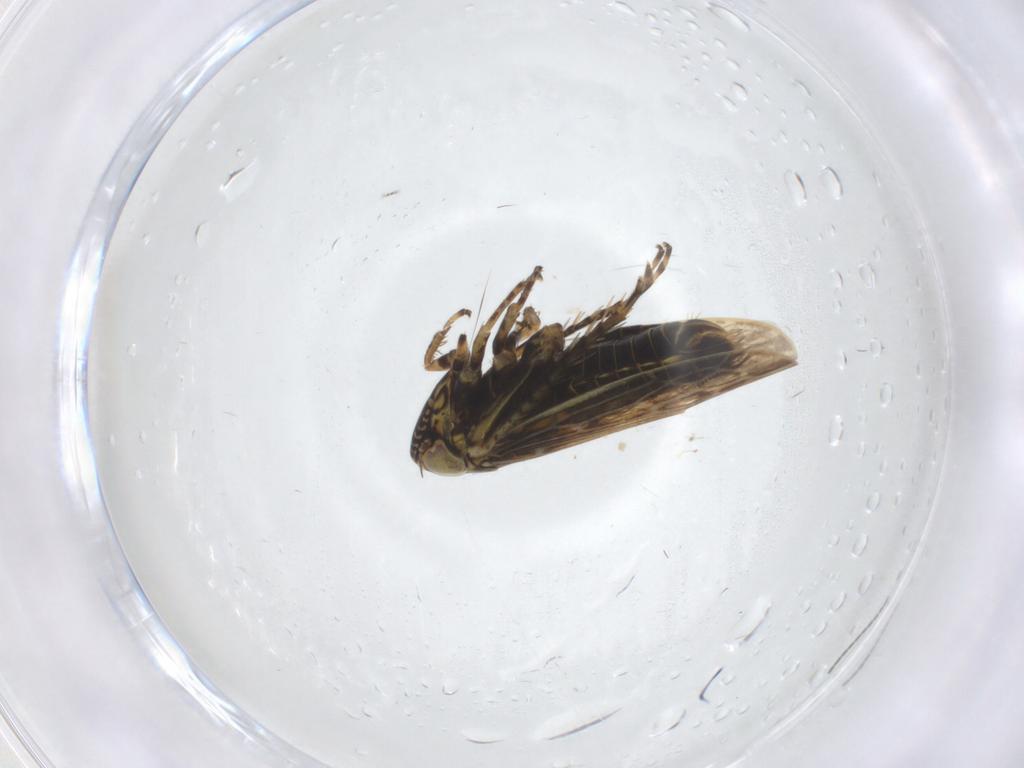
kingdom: Animalia
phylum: Arthropoda
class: Insecta
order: Hemiptera
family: Cicadellidae
